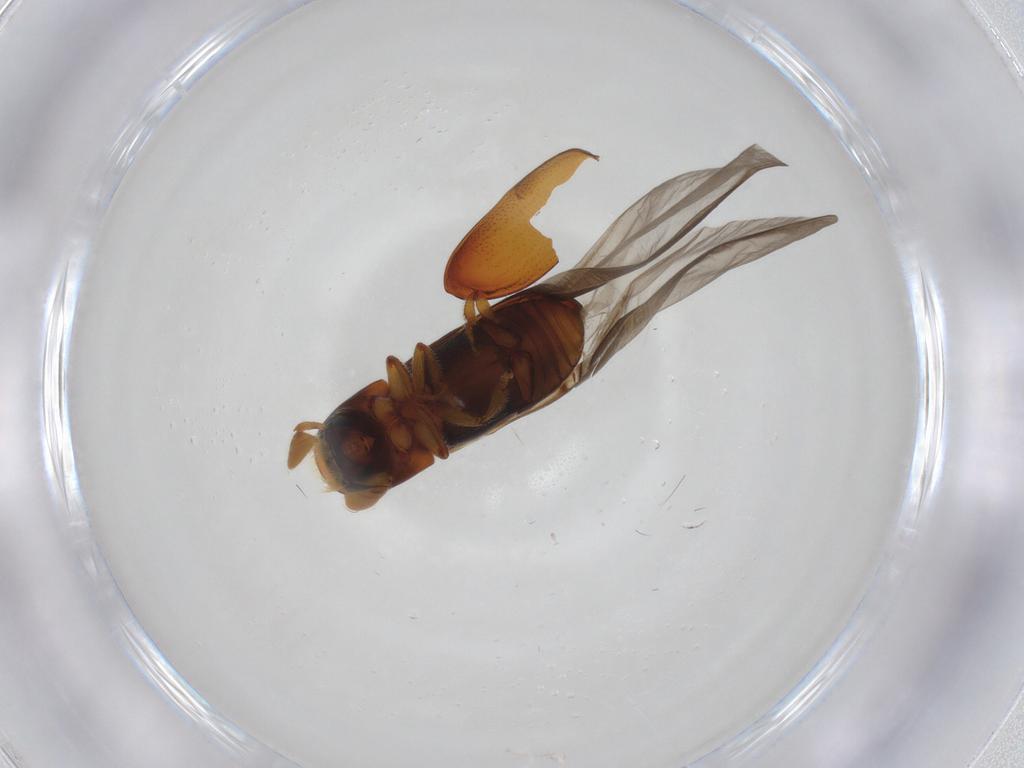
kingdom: Animalia
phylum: Arthropoda
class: Insecta
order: Coleoptera
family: Curculionidae
